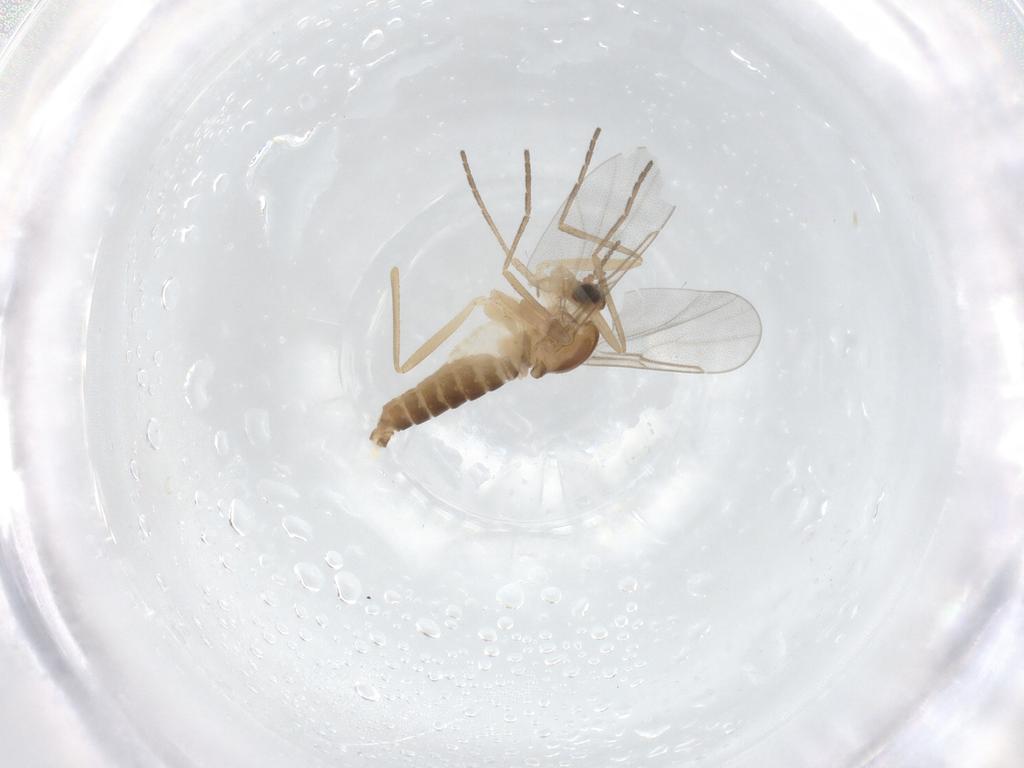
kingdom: Animalia
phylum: Arthropoda
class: Insecta
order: Diptera
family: Cecidomyiidae
